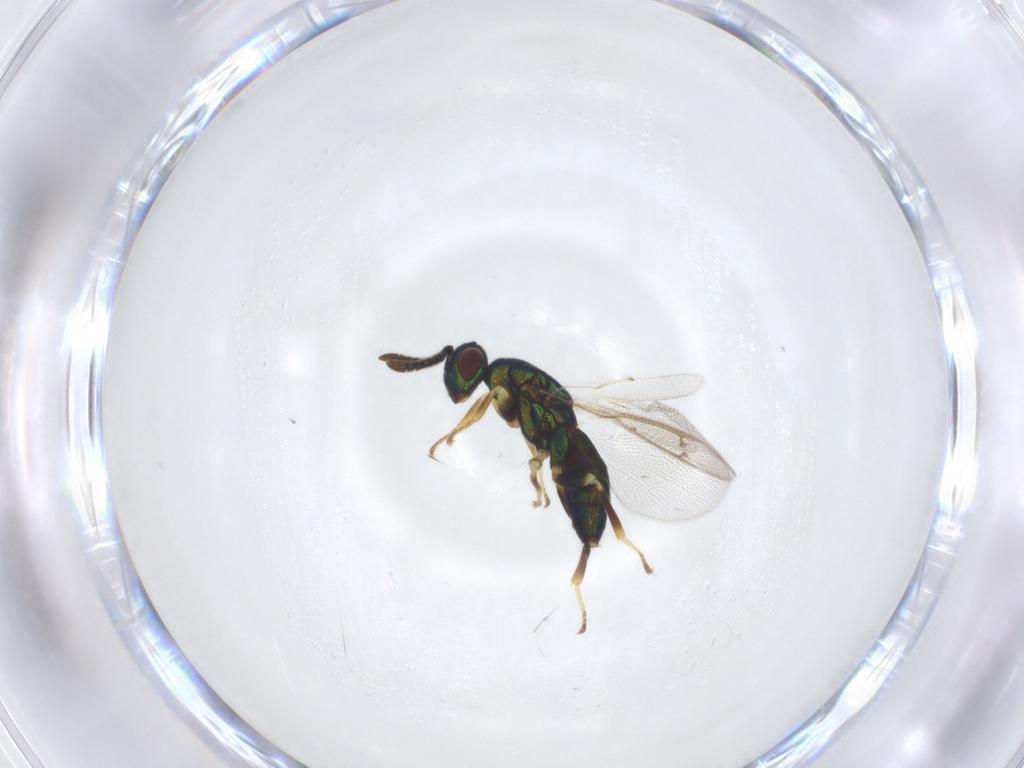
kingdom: Animalia
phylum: Arthropoda
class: Insecta
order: Hymenoptera
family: Torymidae
